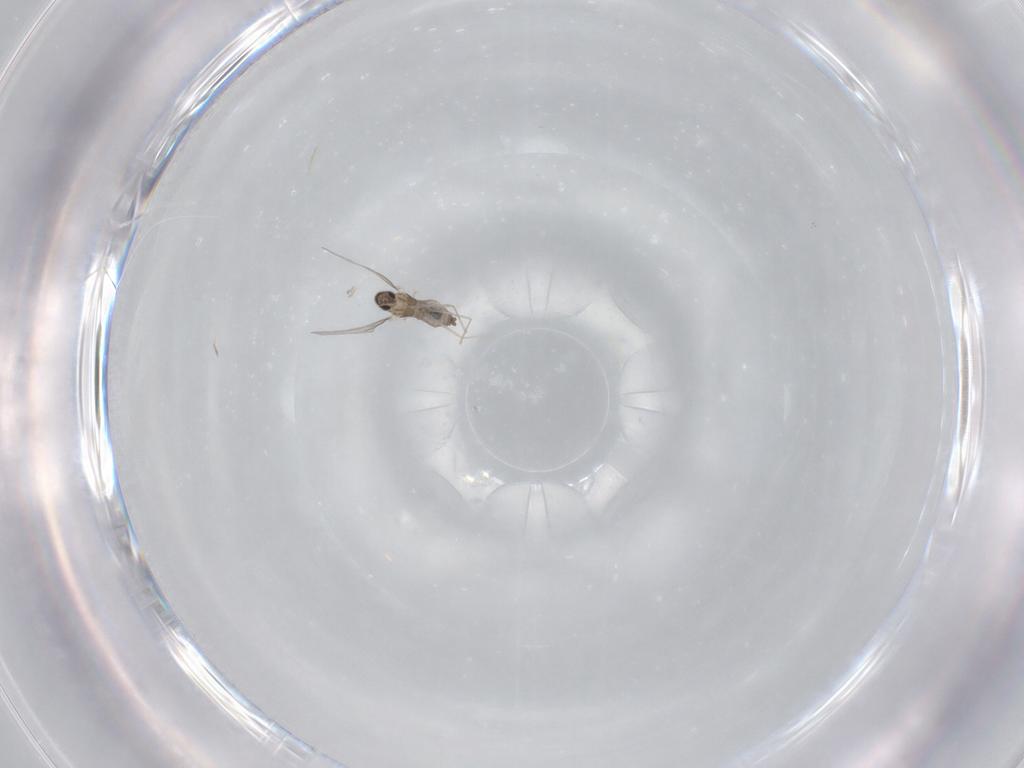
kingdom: Animalia
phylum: Arthropoda
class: Insecta
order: Diptera
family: Cecidomyiidae
